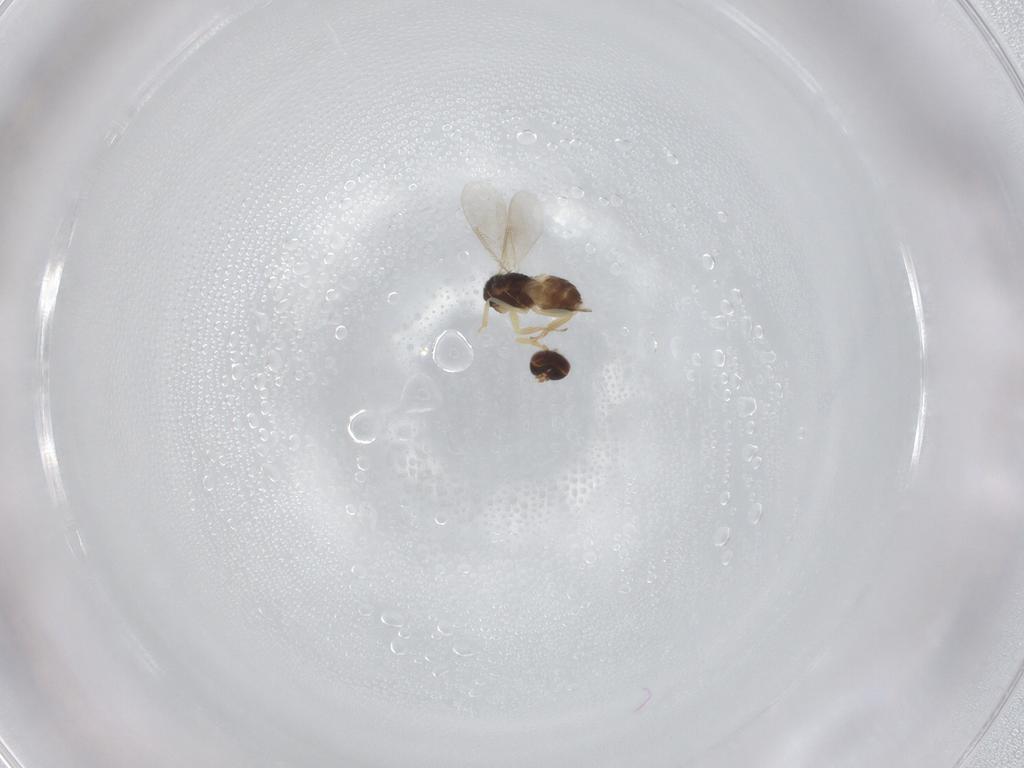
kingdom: Animalia
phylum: Arthropoda
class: Insecta
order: Hymenoptera
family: Aphelinidae
